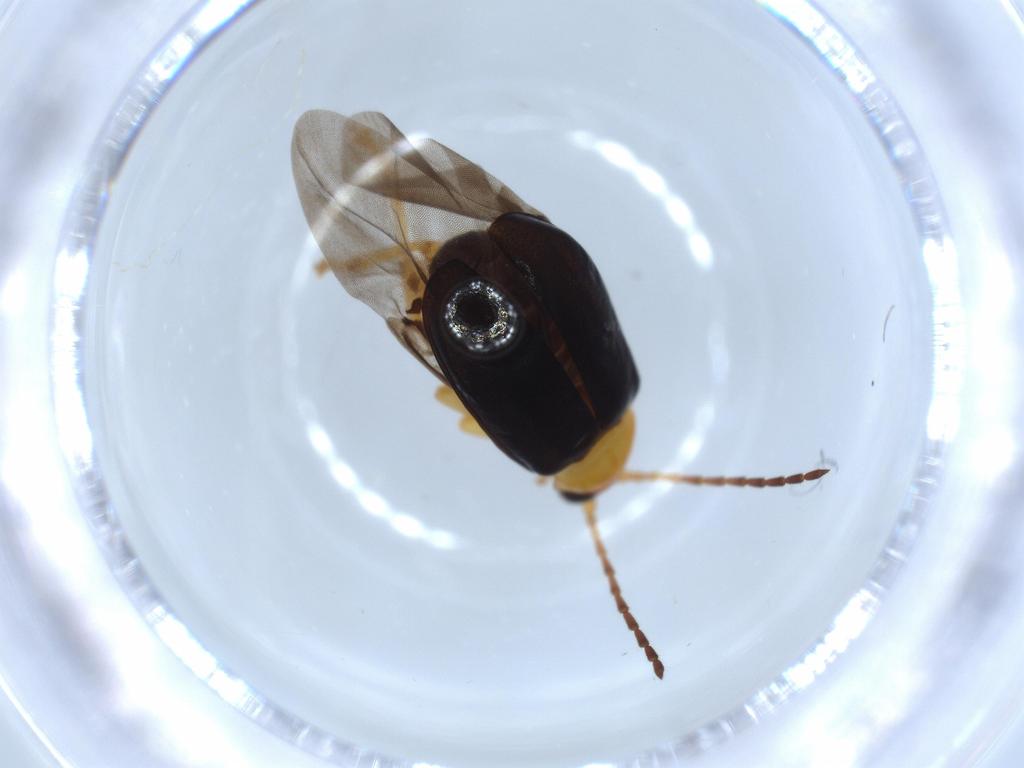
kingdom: Animalia
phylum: Arthropoda
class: Insecta
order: Coleoptera
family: Chrysomelidae
